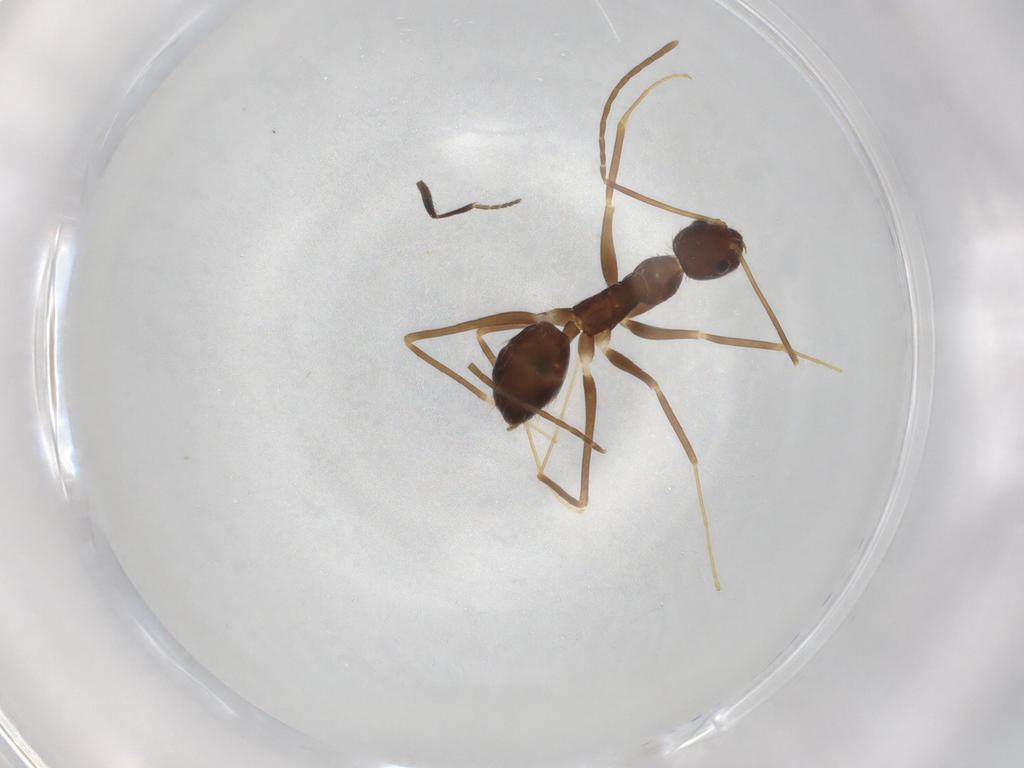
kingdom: Animalia
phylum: Arthropoda
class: Insecta
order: Hymenoptera
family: Formicidae
